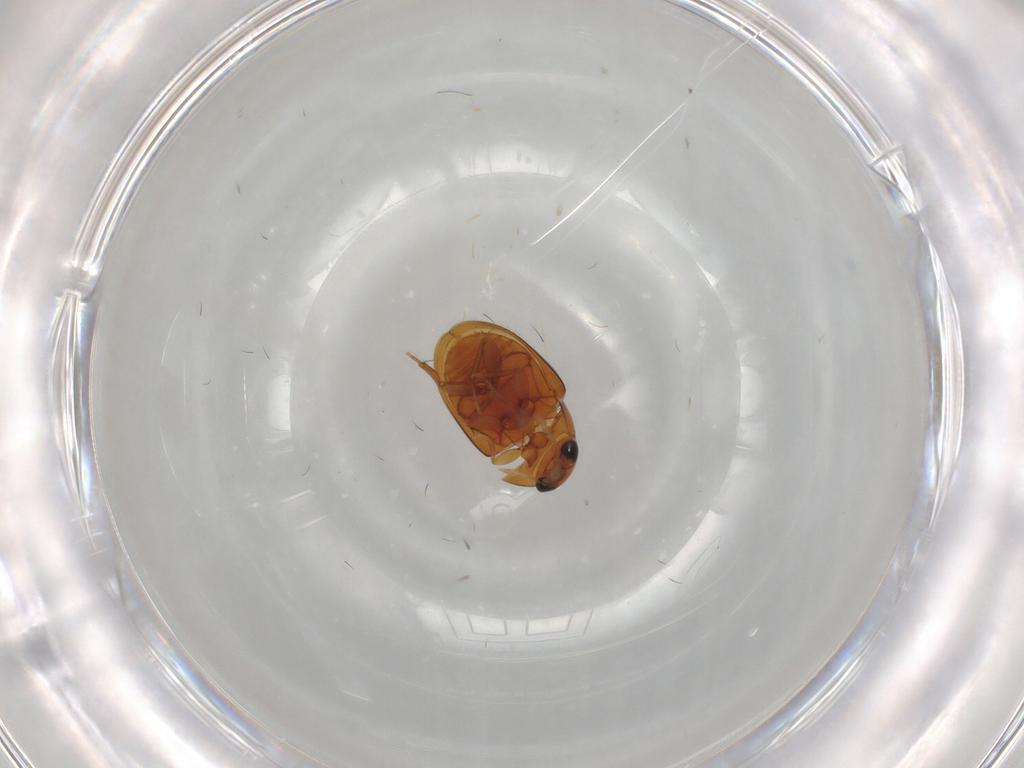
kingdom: Animalia
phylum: Arthropoda
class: Insecta
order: Coleoptera
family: Phalacridae
